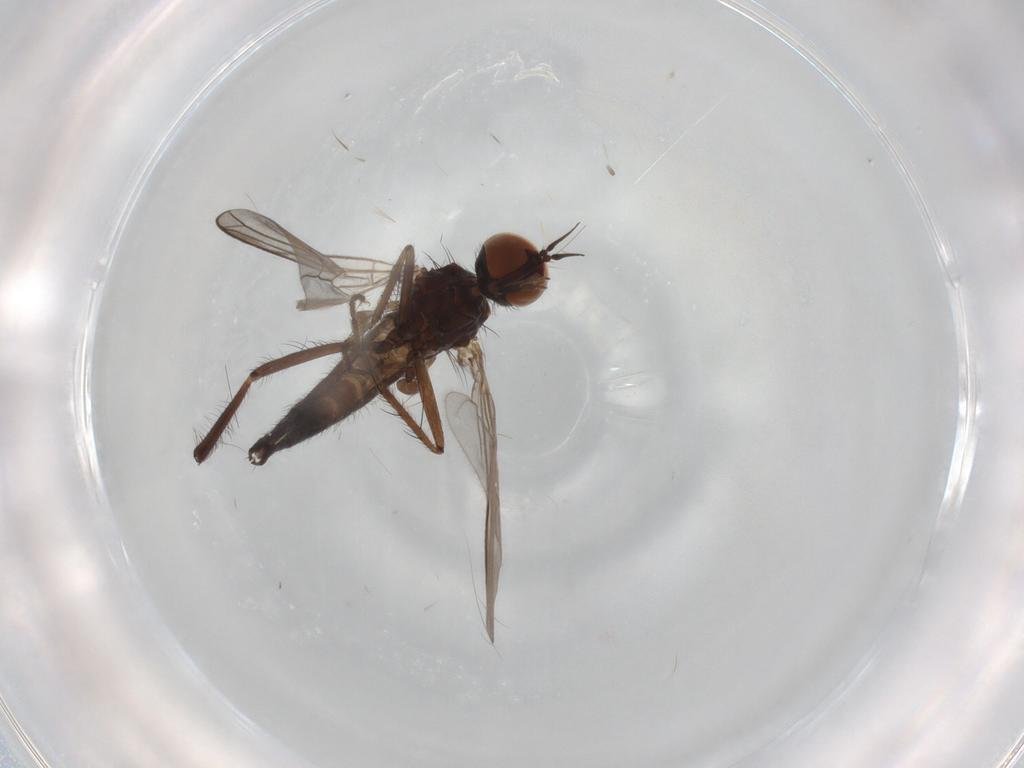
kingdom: Animalia
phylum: Arthropoda
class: Insecta
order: Diptera
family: Empididae
